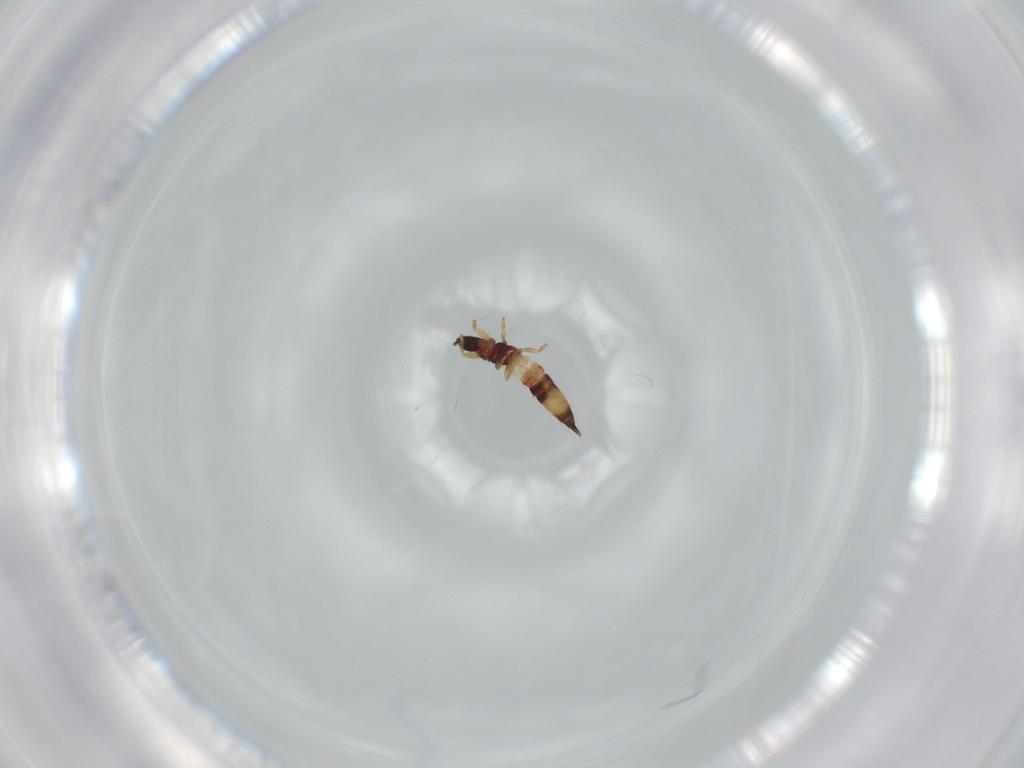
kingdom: Animalia
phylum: Arthropoda
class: Insecta
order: Thysanoptera
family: Phlaeothripidae
